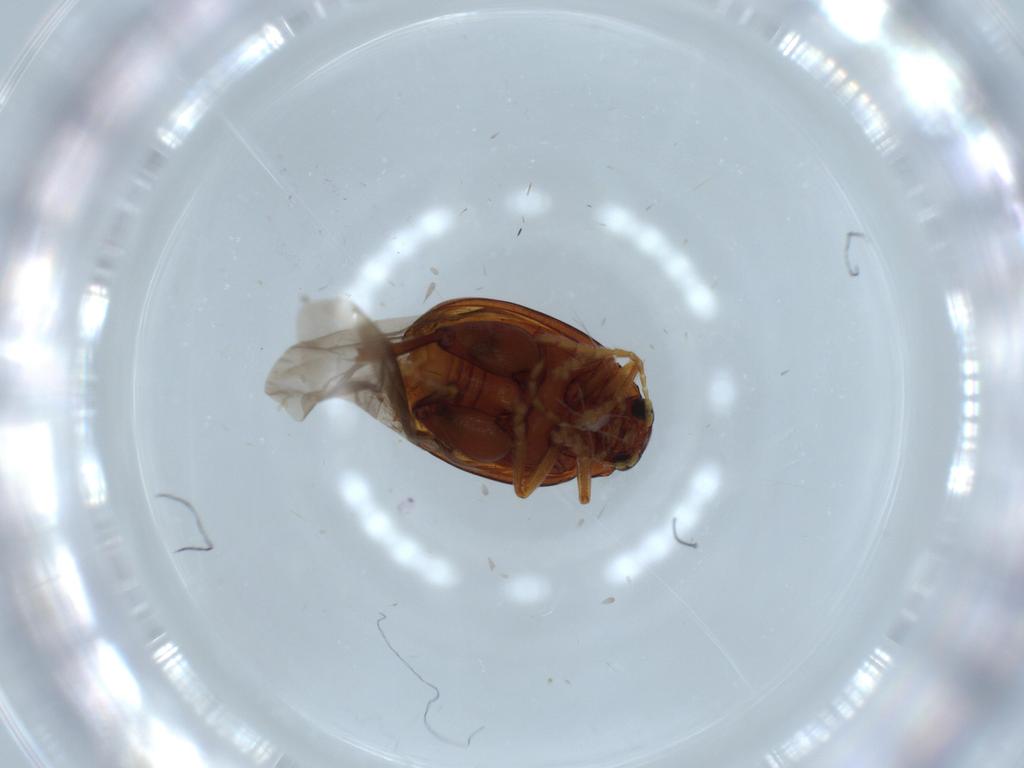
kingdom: Animalia
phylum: Arthropoda
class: Insecta
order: Coleoptera
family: Chrysomelidae
